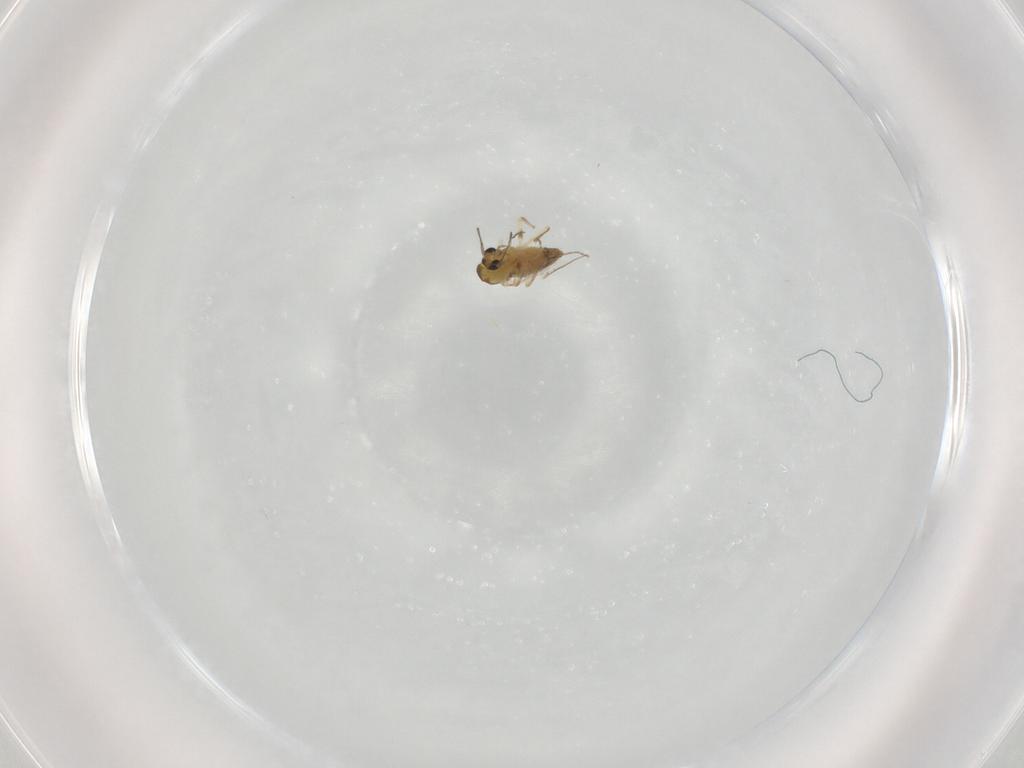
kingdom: Animalia
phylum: Arthropoda
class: Insecta
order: Diptera
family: Chironomidae
